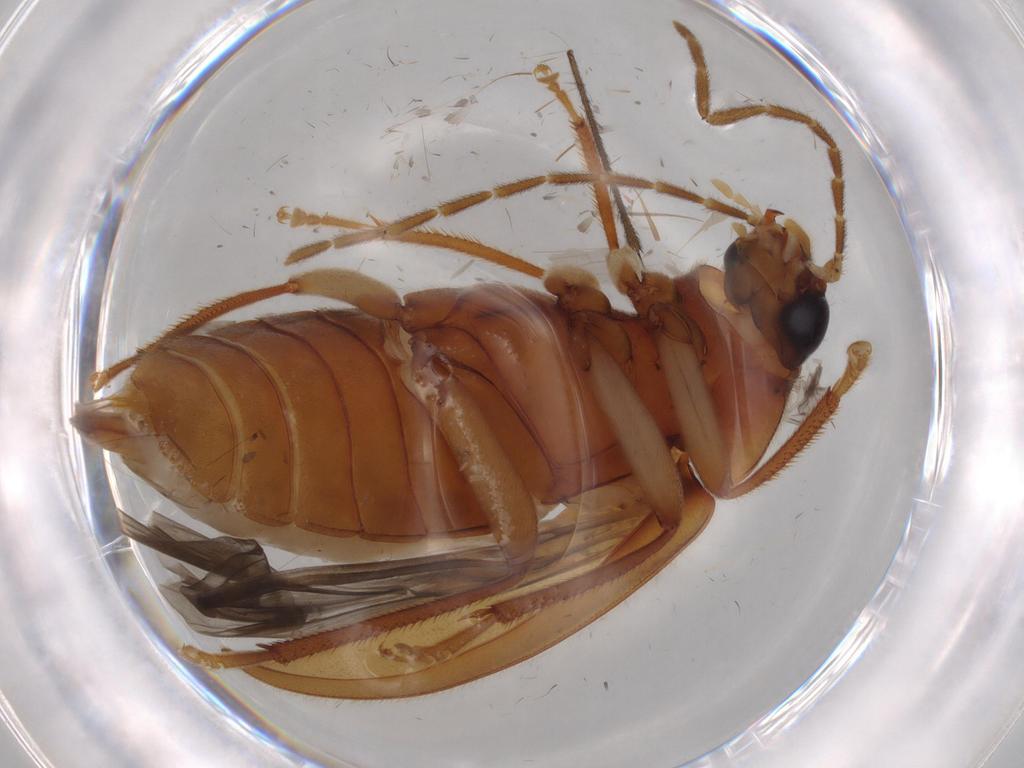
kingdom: Animalia
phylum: Arthropoda
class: Insecta
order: Coleoptera
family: Ptilodactylidae
